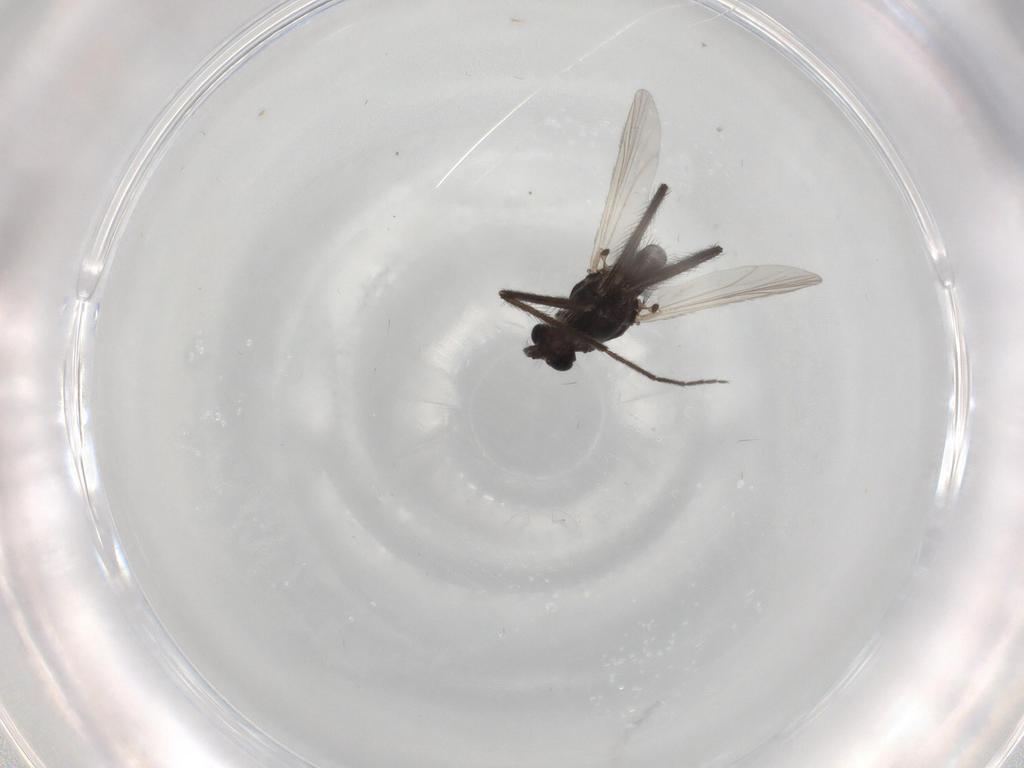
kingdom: Animalia
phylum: Arthropoda
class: Insecta
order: Diptera
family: Chironomidae
